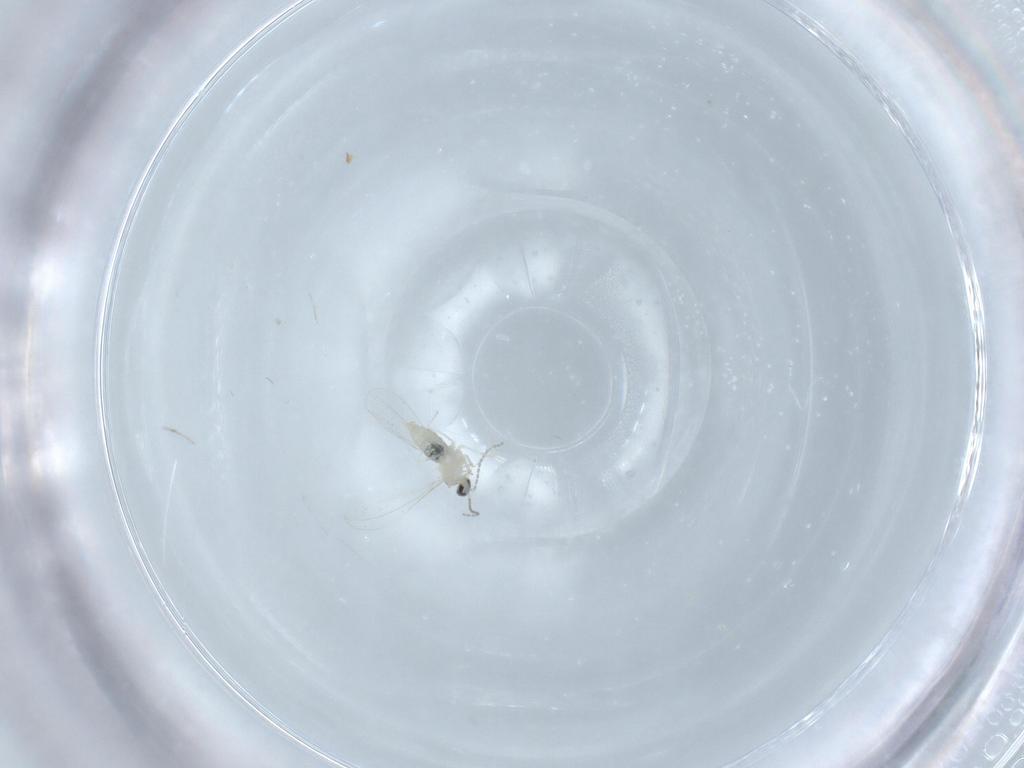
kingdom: Animalia
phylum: Arthropoda
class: Insecta
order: Diptera
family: Cecidomyiidae
